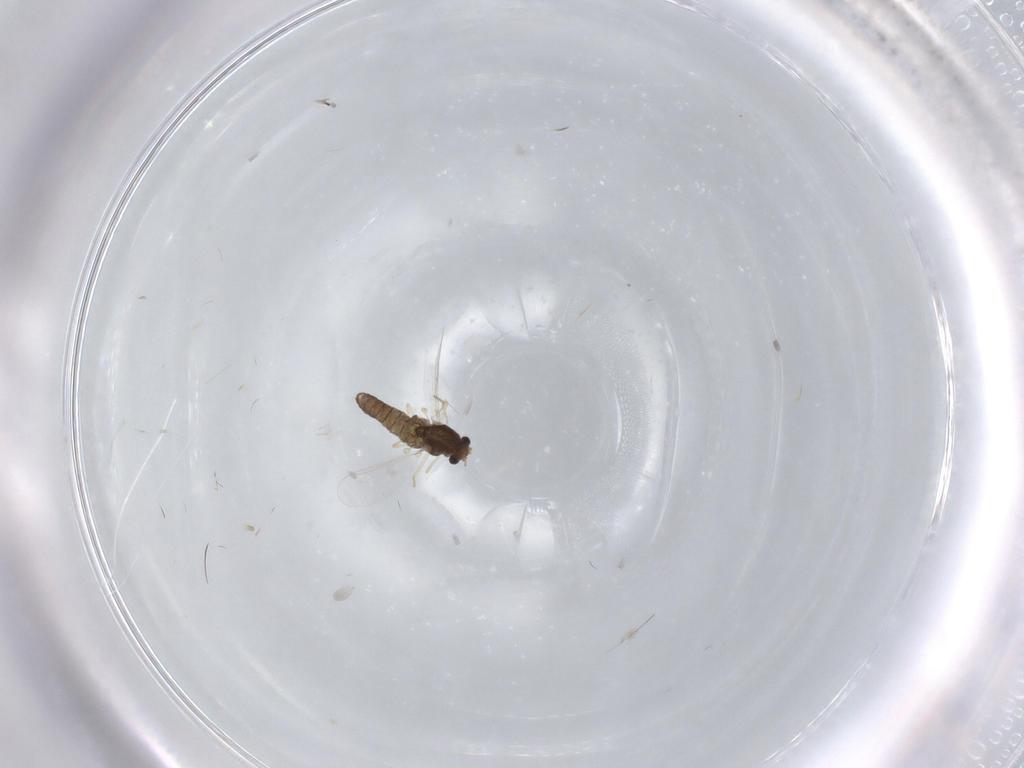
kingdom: Animalia
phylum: Arthropoda
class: Insecta
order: Diptera
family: Chironomidae
